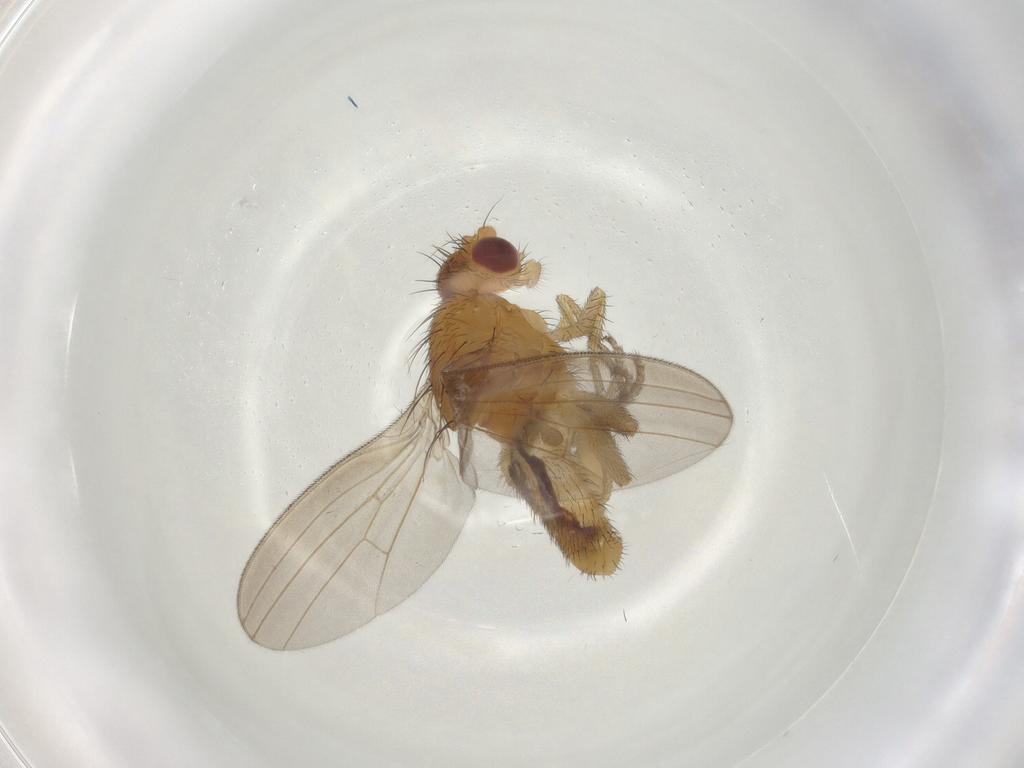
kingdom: Animalia
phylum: Arthropoda
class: Insecta
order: Diptera
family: Natalimyzidae
